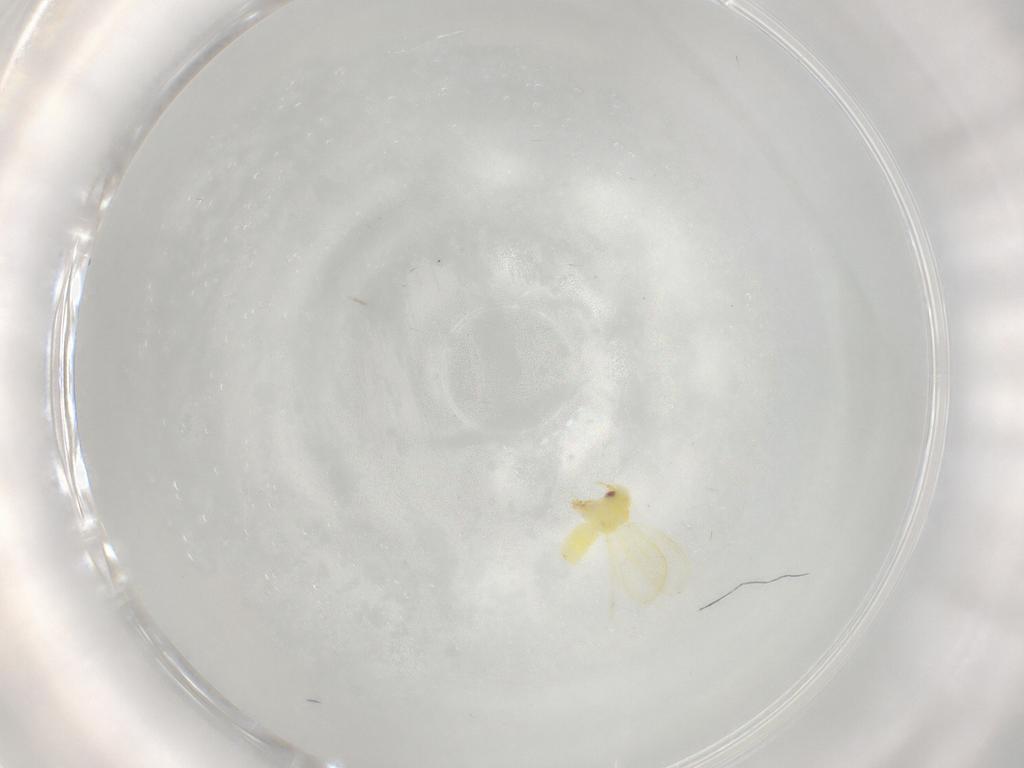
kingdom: Animalia
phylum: Arthropoda
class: Insecta
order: Hemiptera
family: Aleyrodidae
